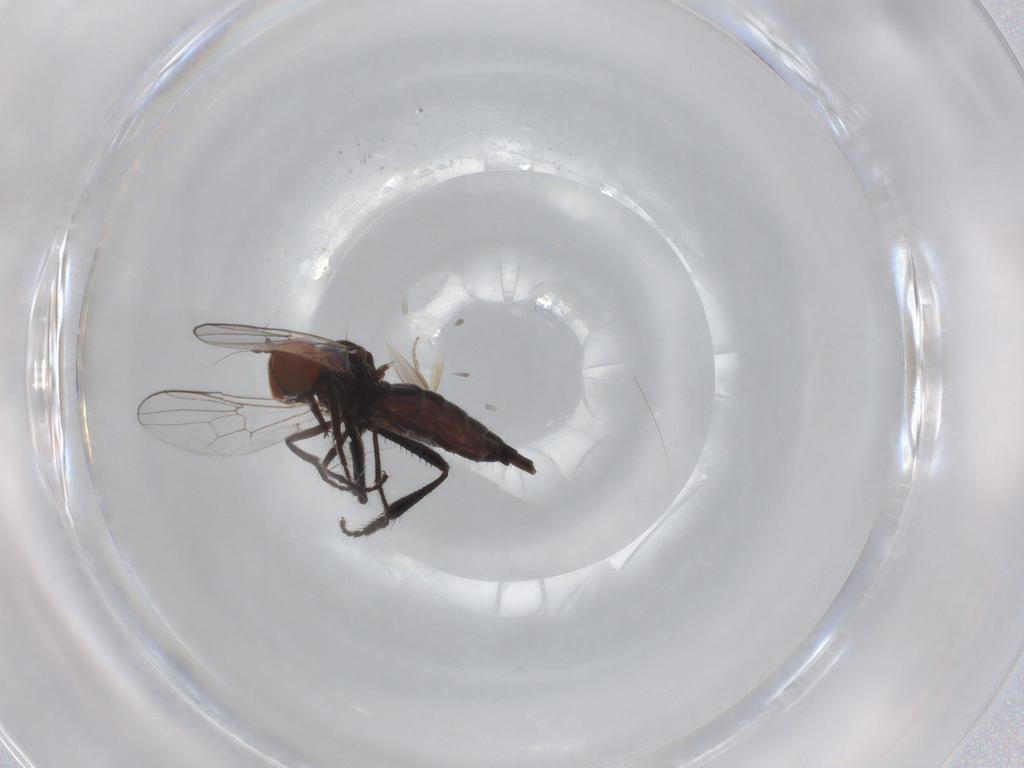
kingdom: Animalia
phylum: Arthropoda
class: Insecta
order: Diptera
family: Hybotidae
